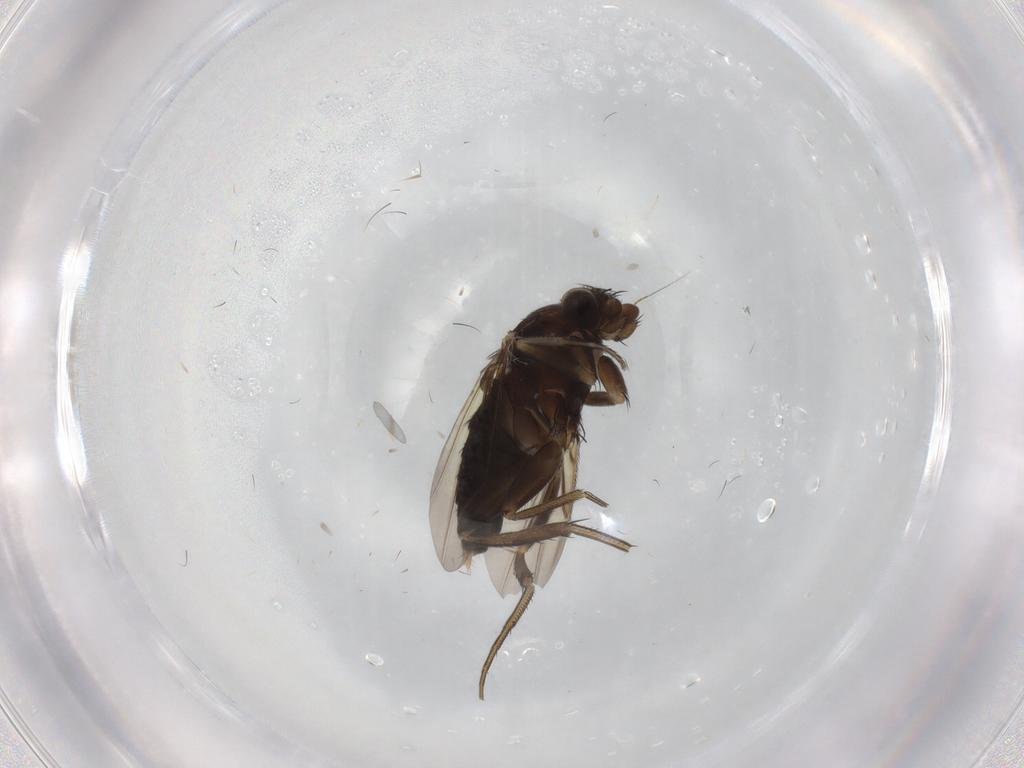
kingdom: Animalia
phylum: Arthropoda
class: Insecta
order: Diptera
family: Phoridae
